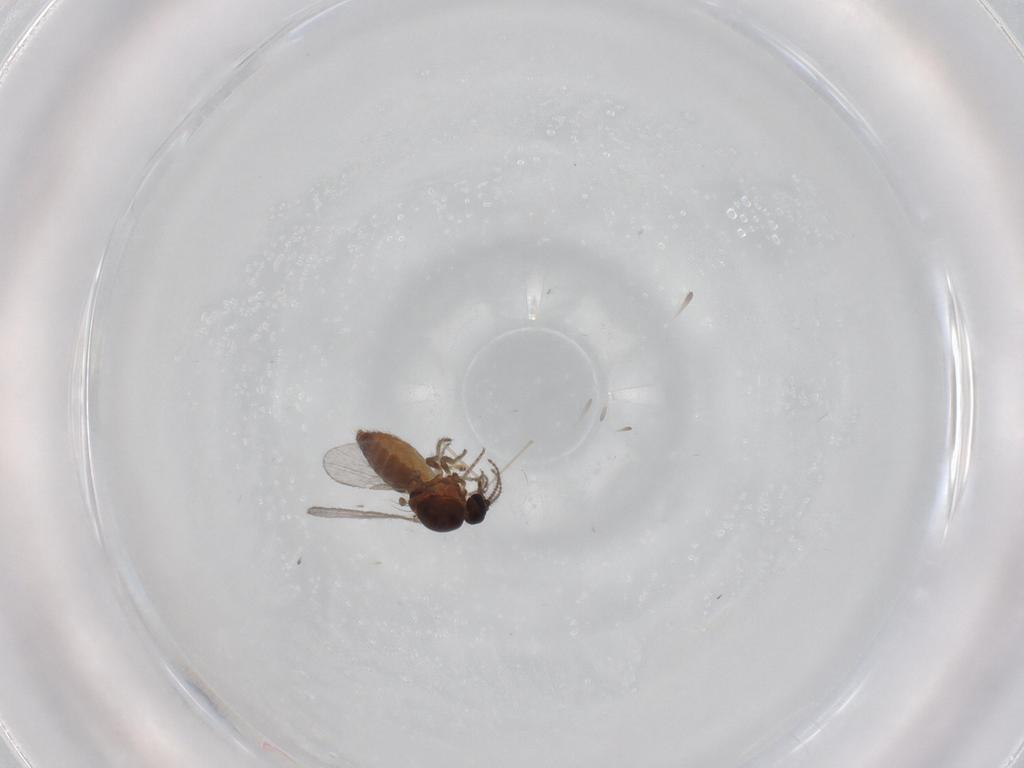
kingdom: Animalia
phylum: Arthropoda
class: Insecta
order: Diptera
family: Ceratopogonidae
